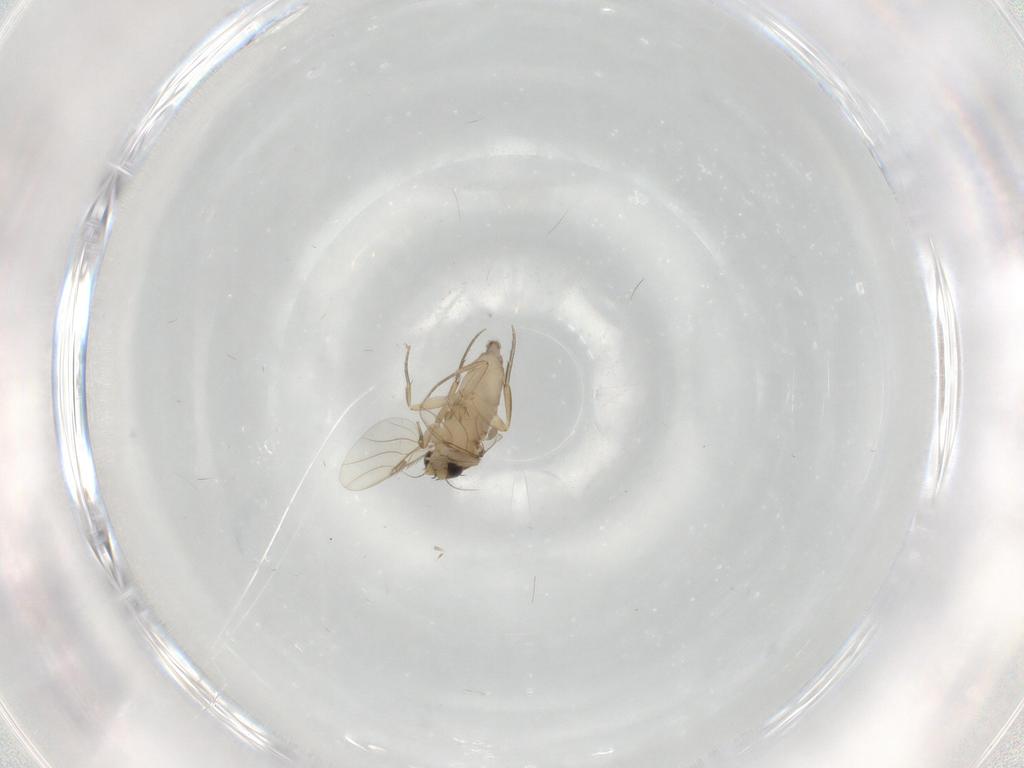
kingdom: Animalia
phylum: Arthropoda
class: Insecta
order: Diptera
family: Phoridae
